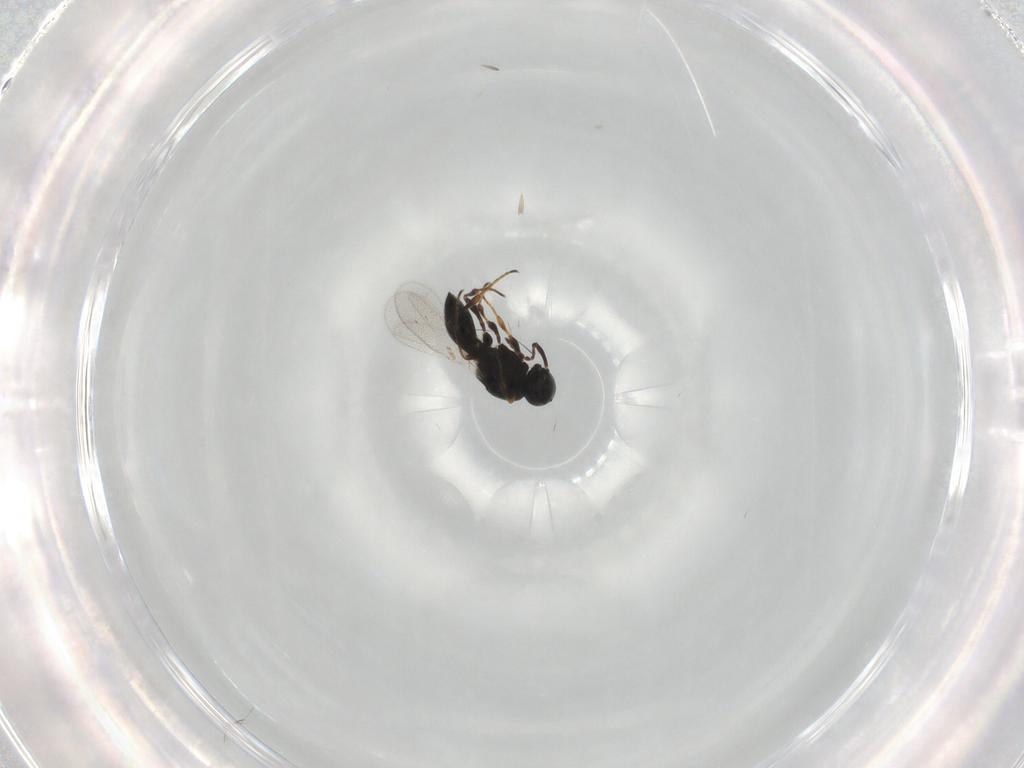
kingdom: Animalia
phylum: Arthropoda
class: Insecta
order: Hymenoptera
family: Platygastridae
